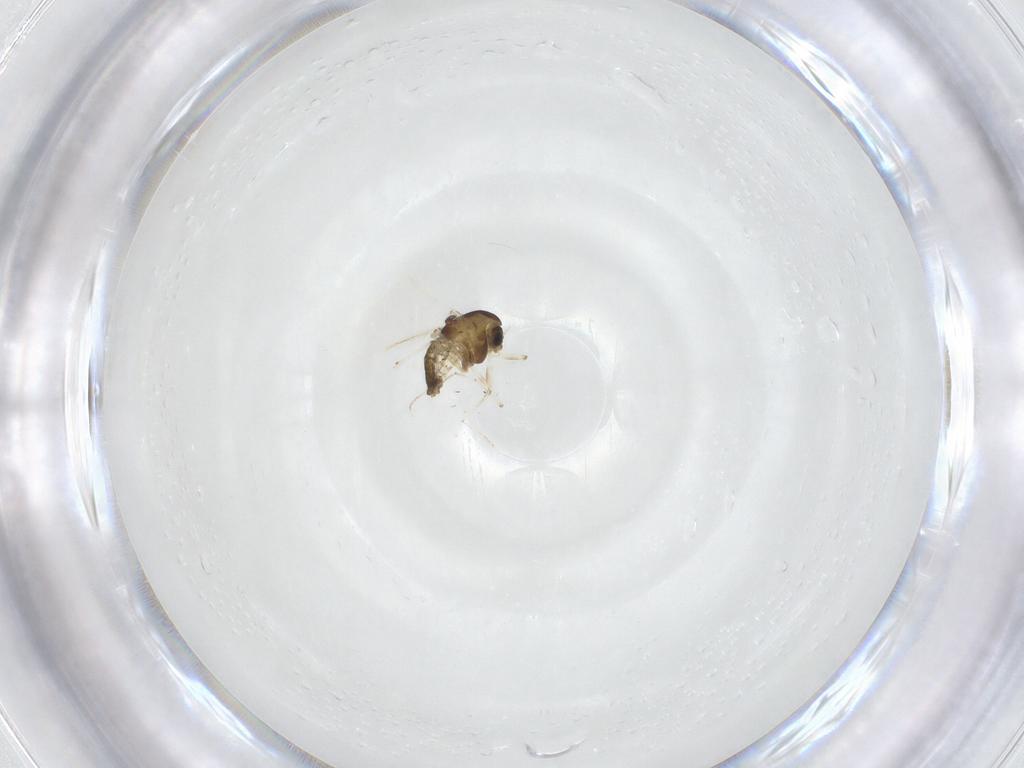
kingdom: Animalia
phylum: Arthropoda
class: Insecta
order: Diptera
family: Chironomidae
